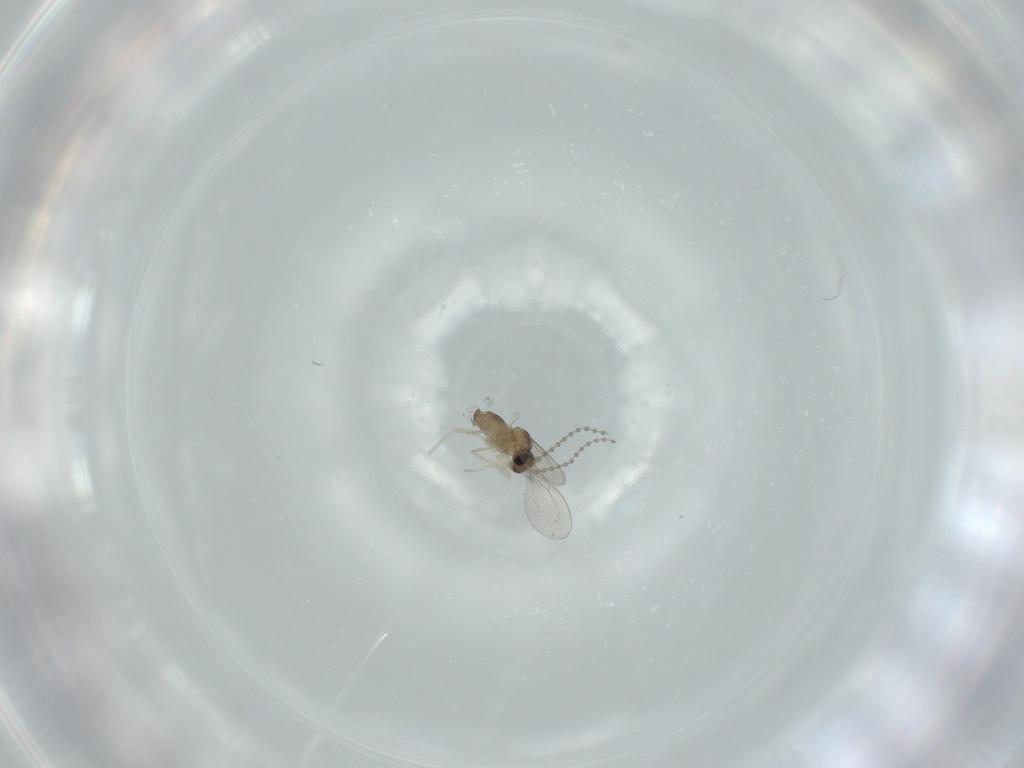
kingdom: Animalia
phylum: Arthropoda
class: Insecta
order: Diptera
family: Cecidomyiidae
